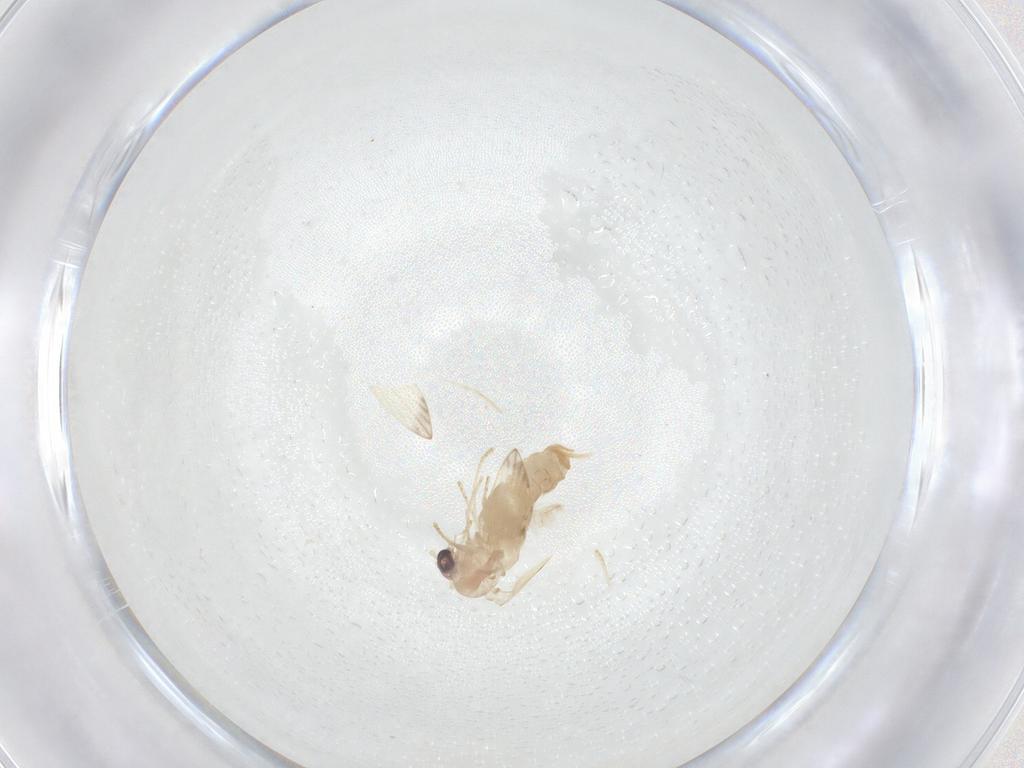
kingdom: Animalia
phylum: Arthropoda
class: Insecta
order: Diptera
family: Psychodidae
